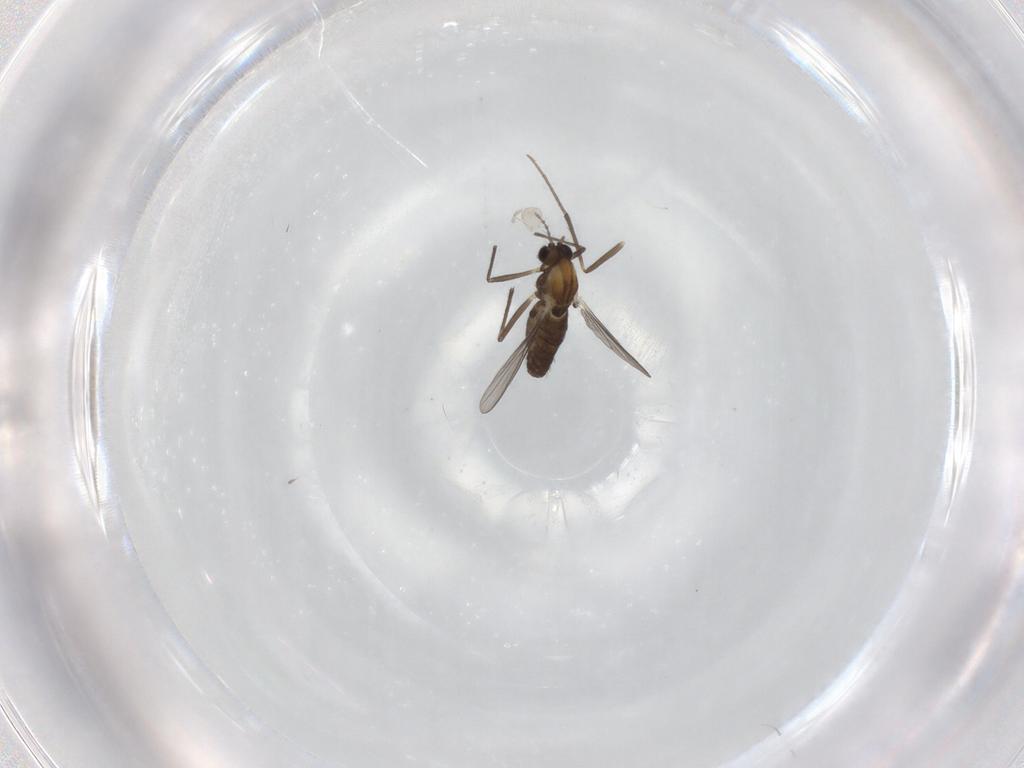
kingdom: Animalia
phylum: Arthropoda
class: Insecta
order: Diptera
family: Chironomidae
